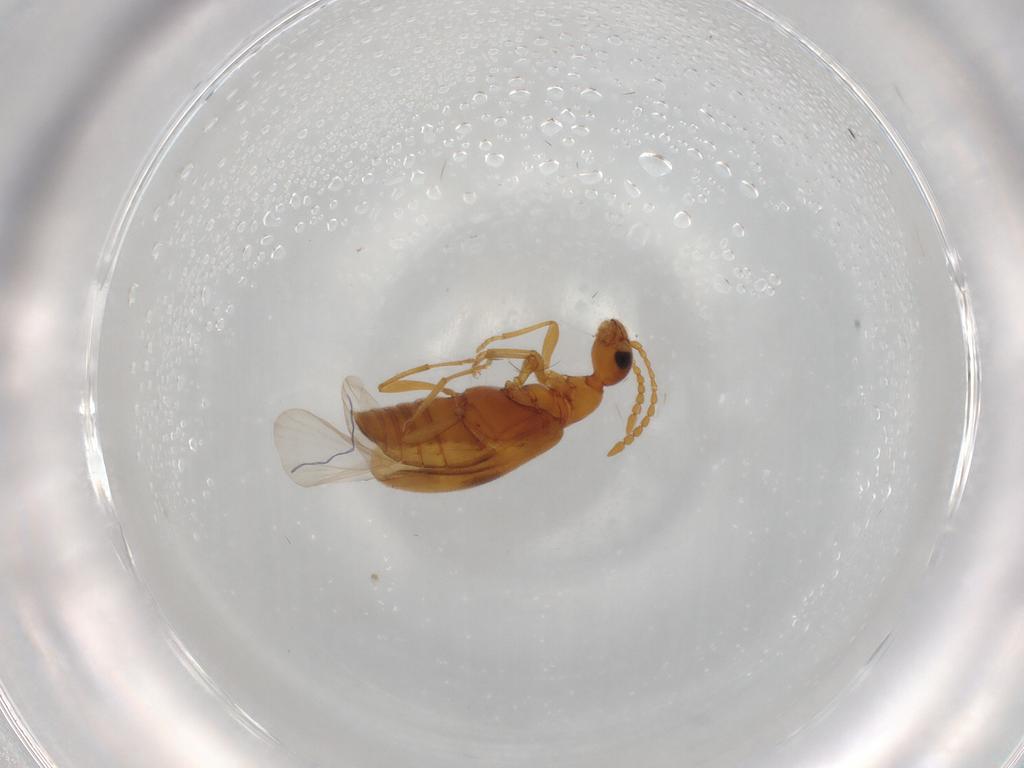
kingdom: Animalia
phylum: Arthropoda
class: Insecta
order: Coleoptera
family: Anthicidae
